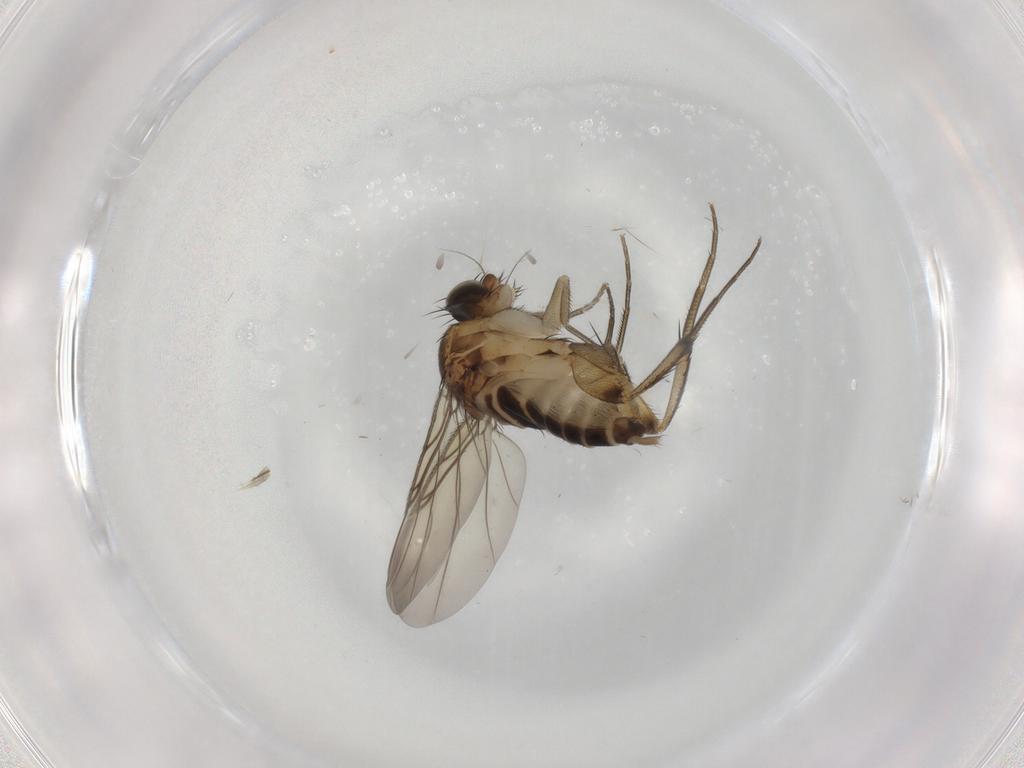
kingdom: Animalia
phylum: Arthropoda
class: Insecta
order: Diptera
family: Phoridae
